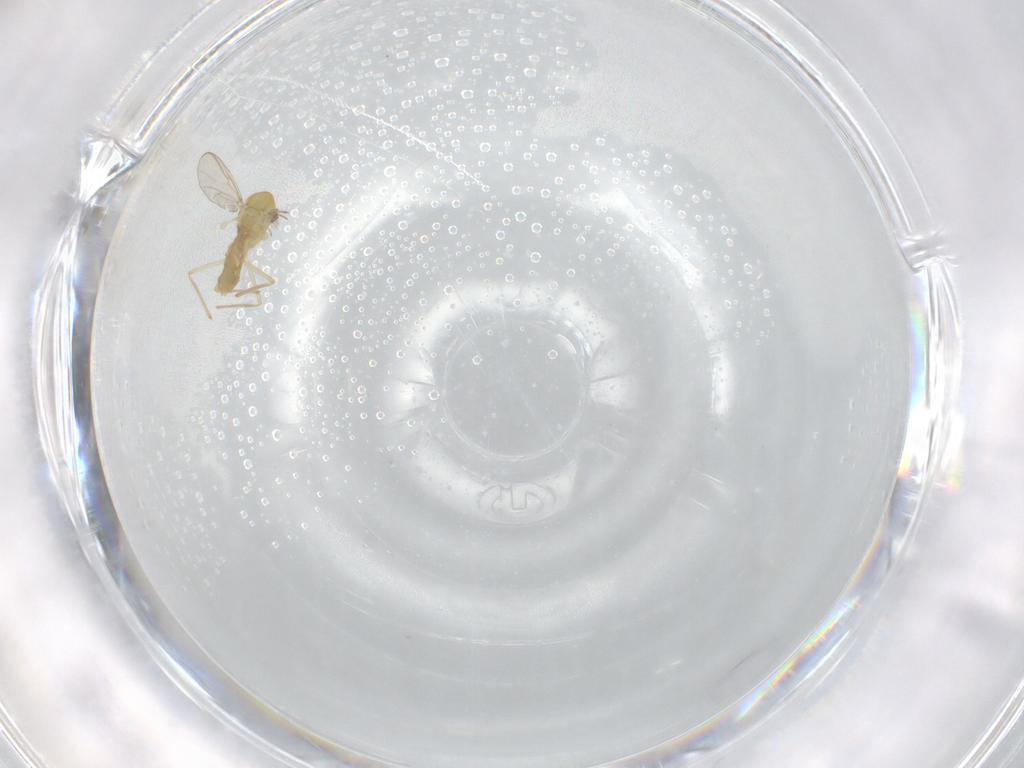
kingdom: Animalia
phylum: Arthropoda
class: Insecta
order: Diptera
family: Chironomidae
